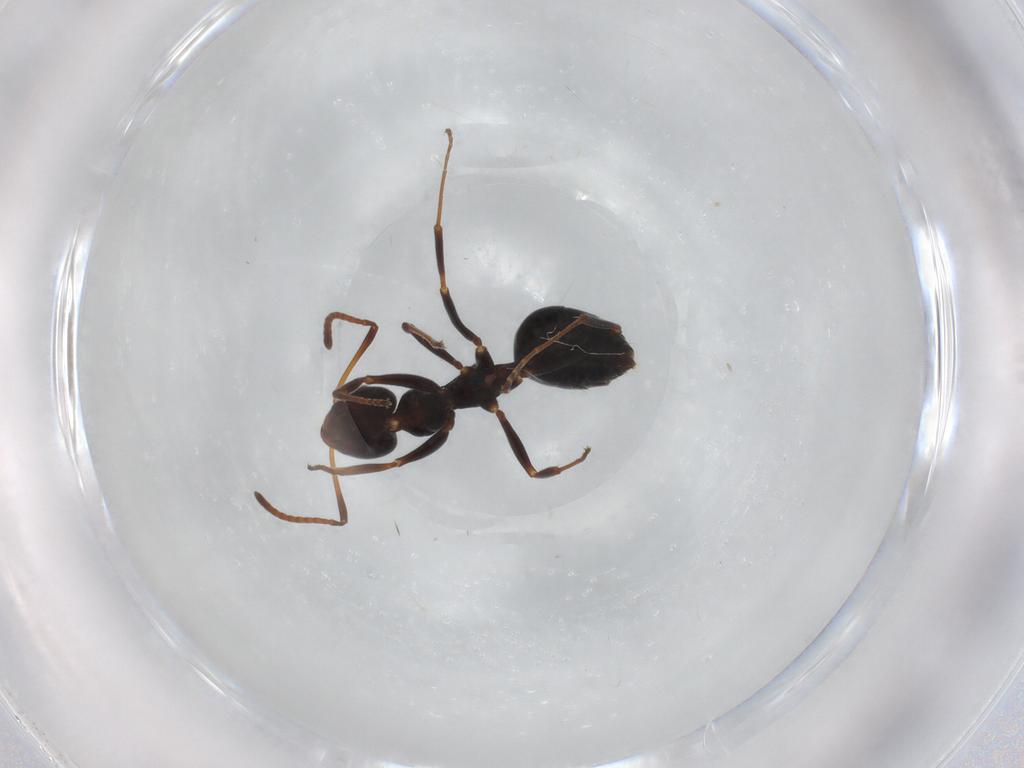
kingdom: Animalia
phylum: Arthropoda
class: Insecta
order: Hymenoptera
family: Formicidae
